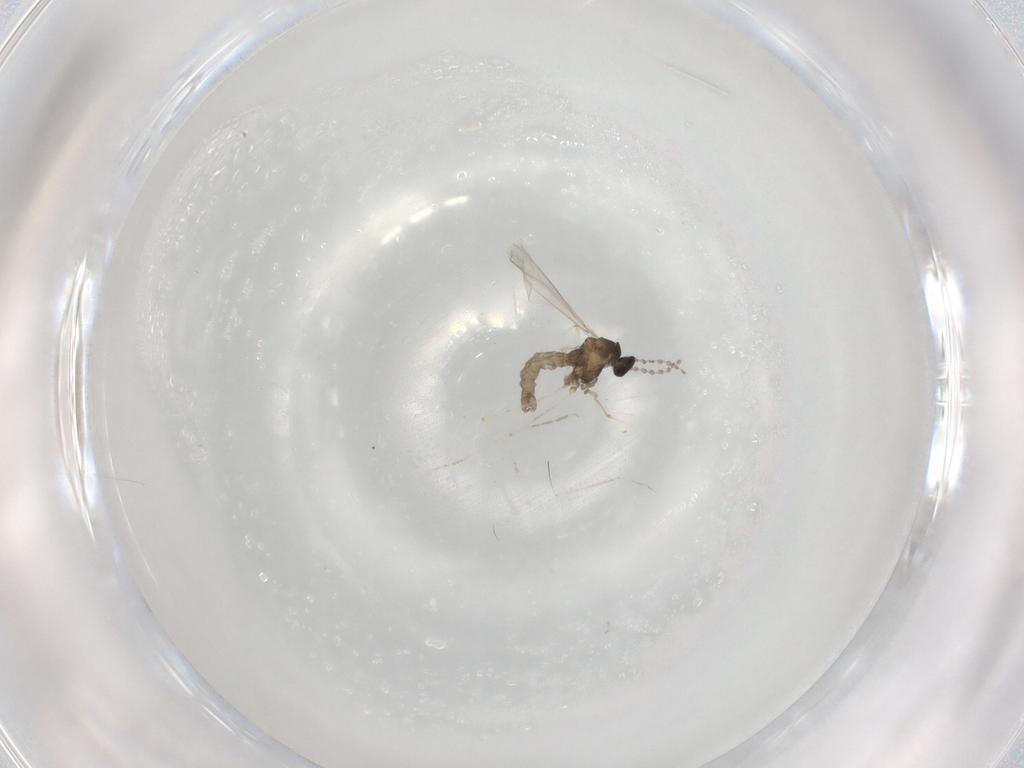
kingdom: Animalia
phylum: Arthropoda
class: Insecta
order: Diptera
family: Cecidomyiidae
